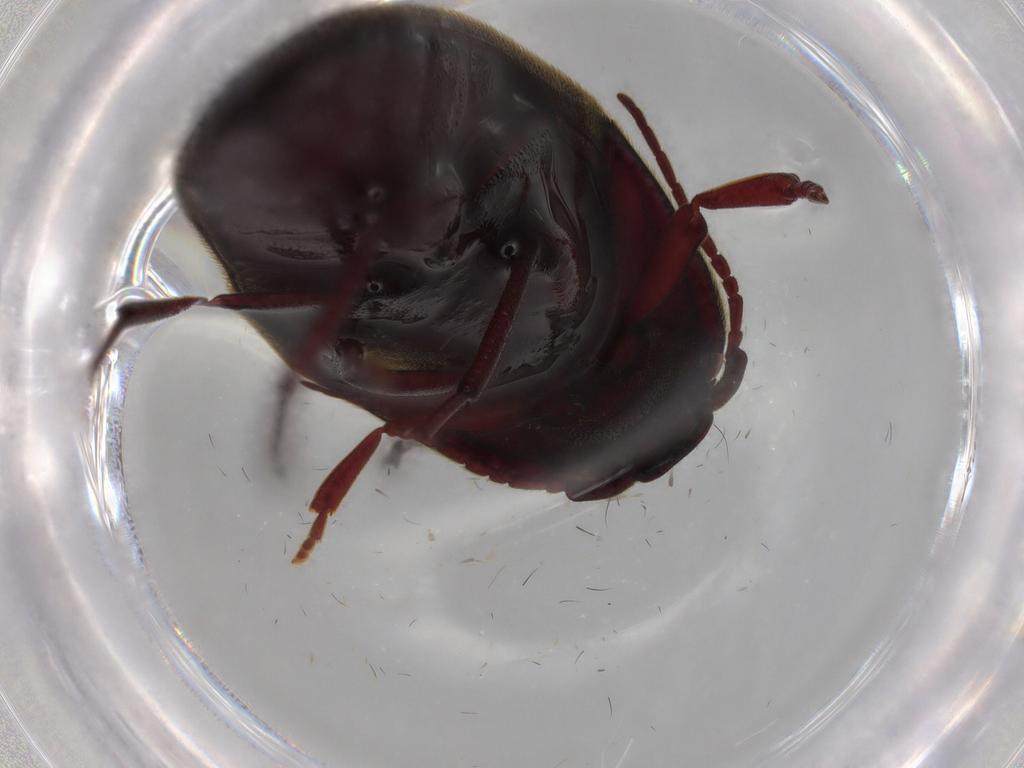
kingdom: Animalia
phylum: Arthropoda
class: Insecta
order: Coleoptera
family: Eucnemidae
